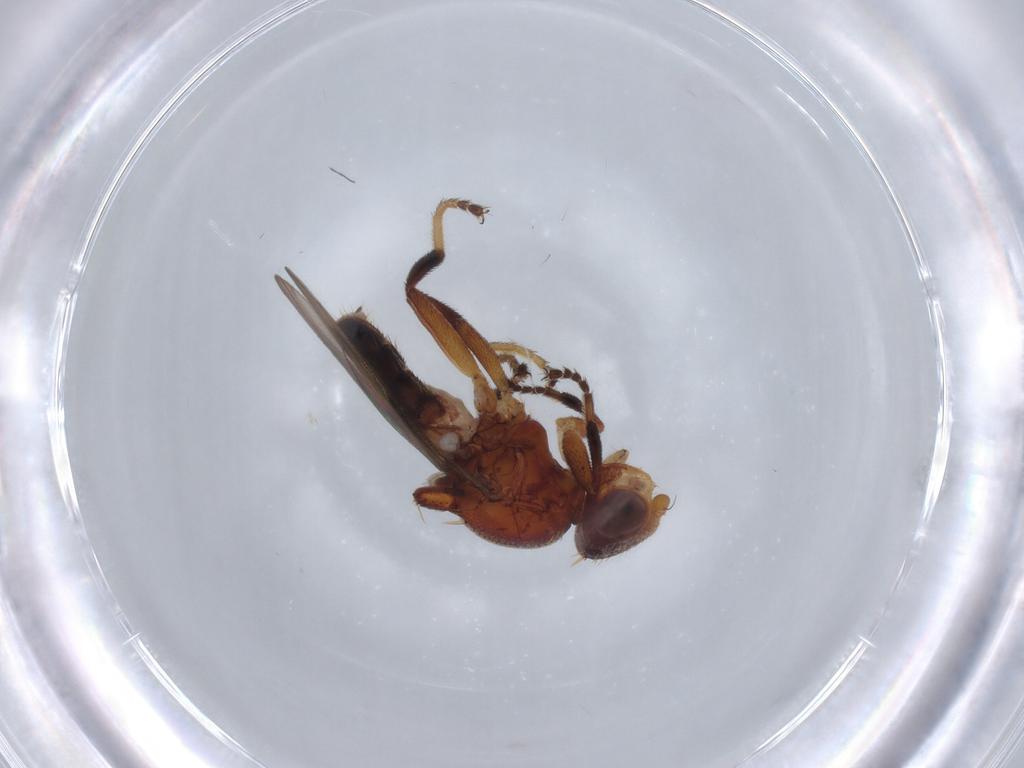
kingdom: Animalia
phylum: Arthropoda
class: Insecta
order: Diptera
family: Chloropidae
